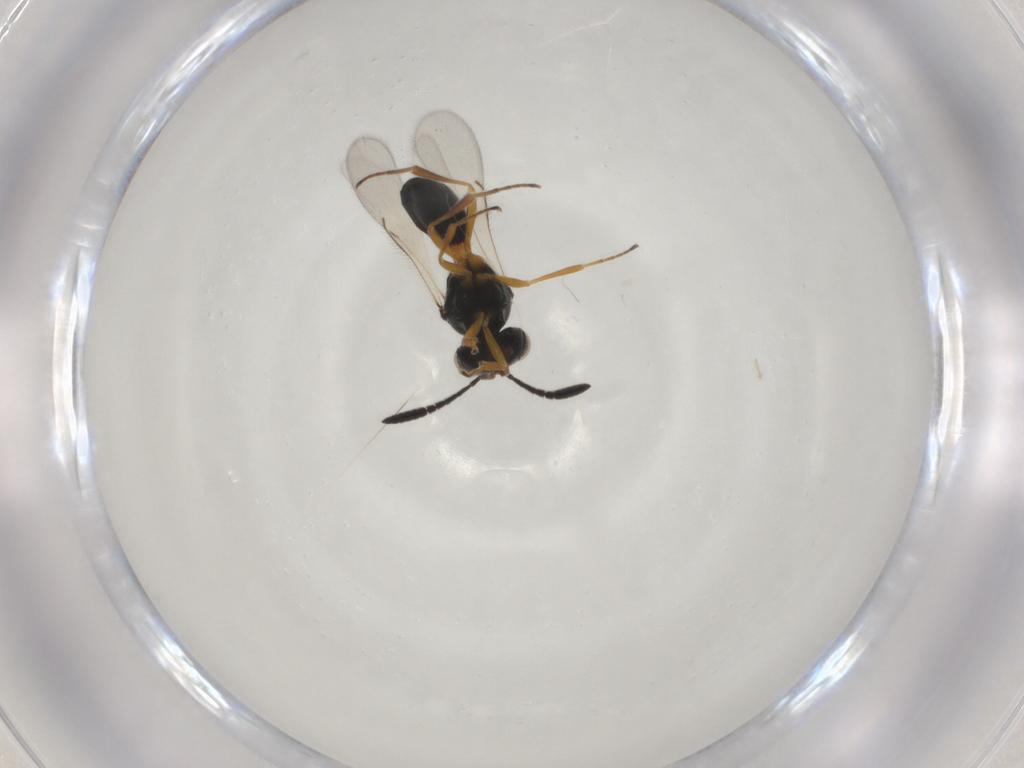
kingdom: Animalia
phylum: Arthropoda
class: Insecta
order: Hymenoptera
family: Scelionidae
